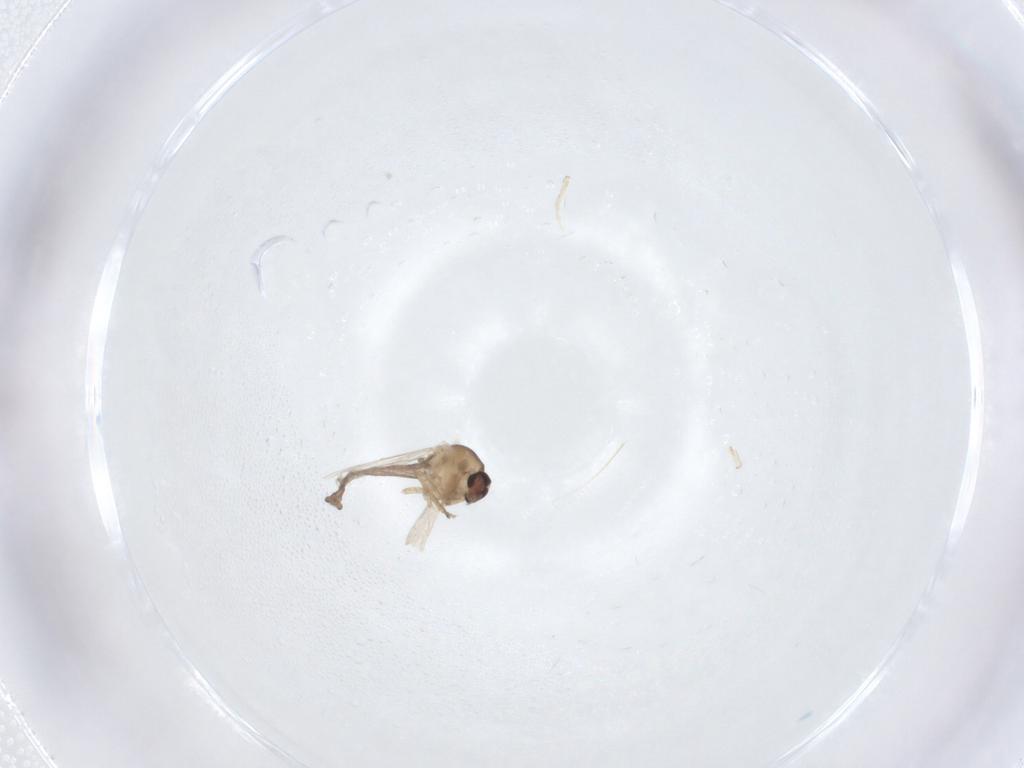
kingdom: Animalia
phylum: Arthropoda
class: Insecta
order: Diptera
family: Ceratopogonidae
